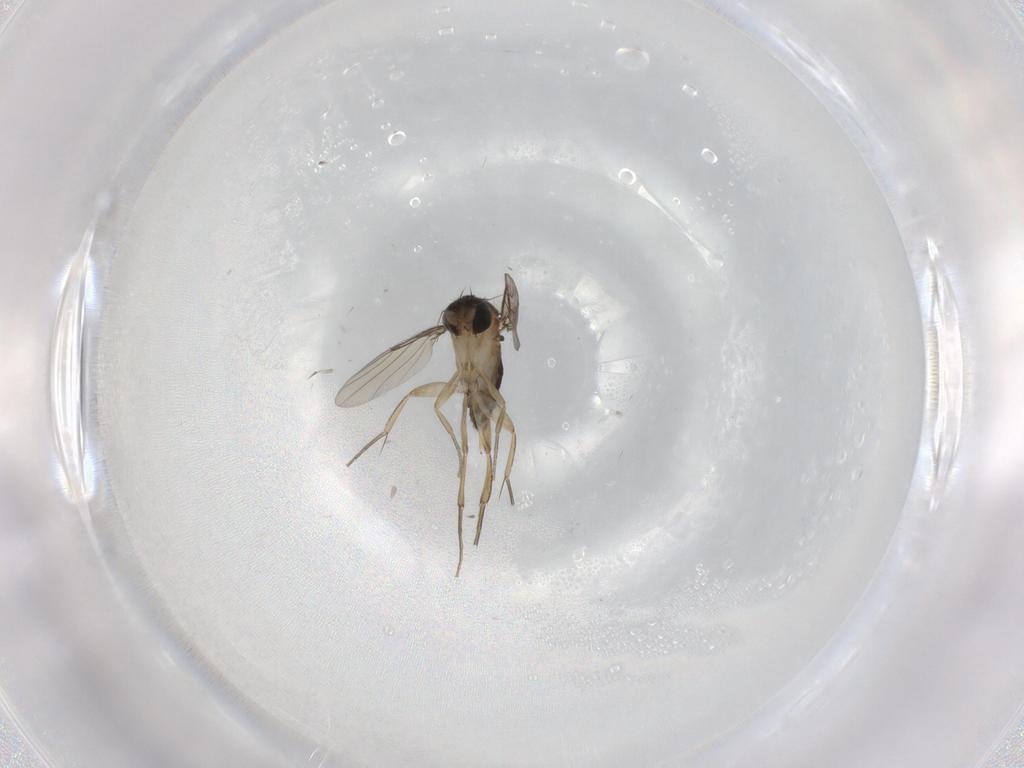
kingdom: Animalia
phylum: Arthropoda
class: Insecta
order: Diptera
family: Phoridae
